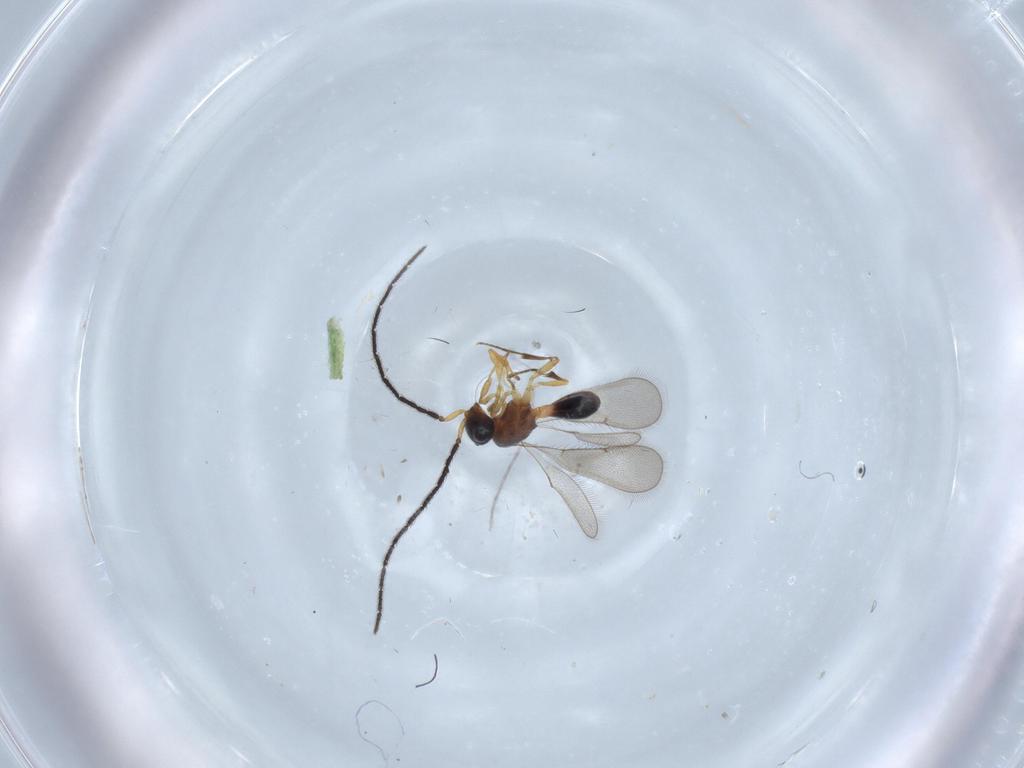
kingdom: Animalia
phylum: Arthropoda
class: Insecta
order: Hymenoptera
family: Scelionidae
